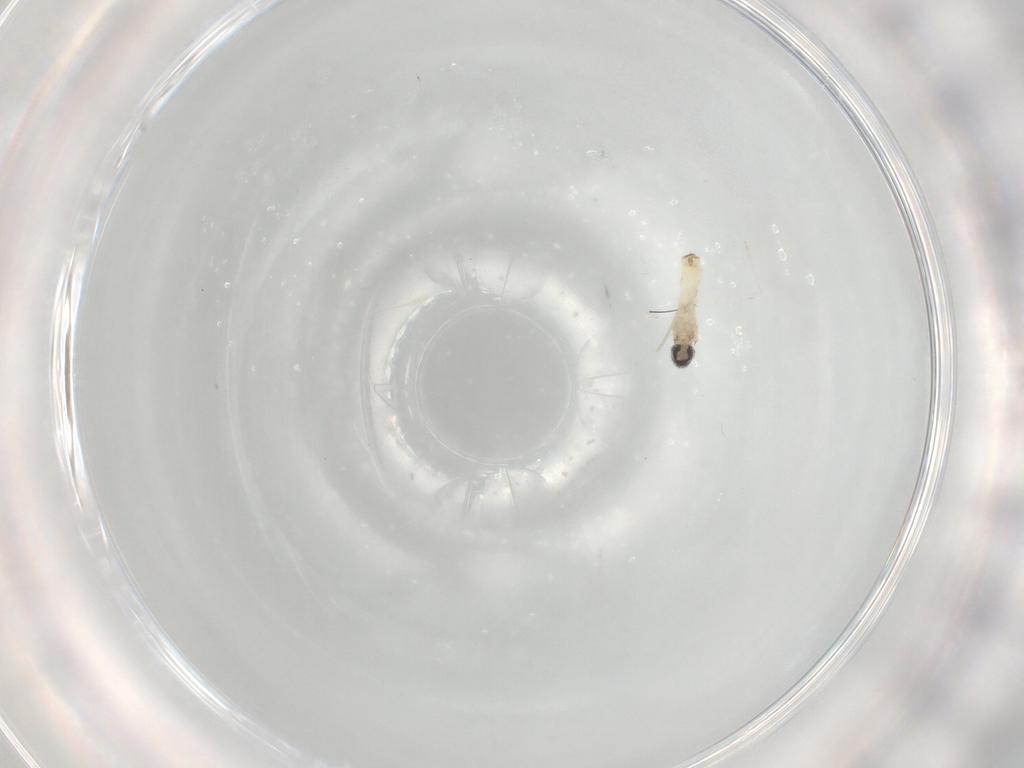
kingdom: Animalia
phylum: Arthropoda
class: Insecta
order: Diptera
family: Cecidomyiidae
